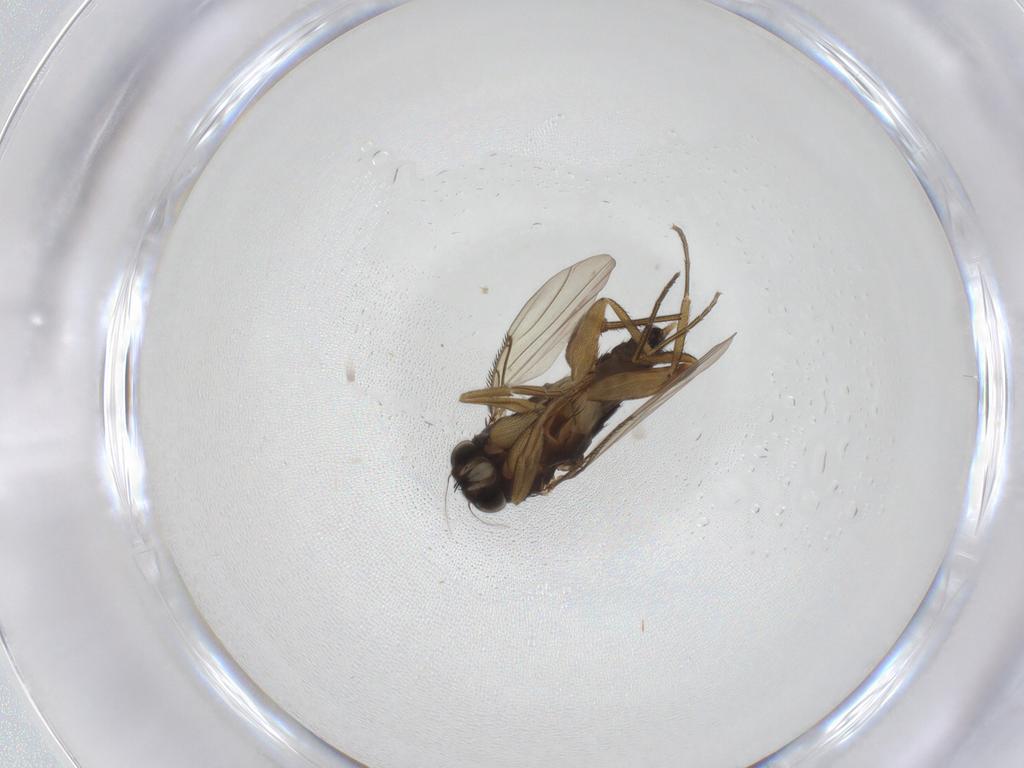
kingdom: Animalia
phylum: Arthropoda
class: Insecta
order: Diptera
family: Phoridae
